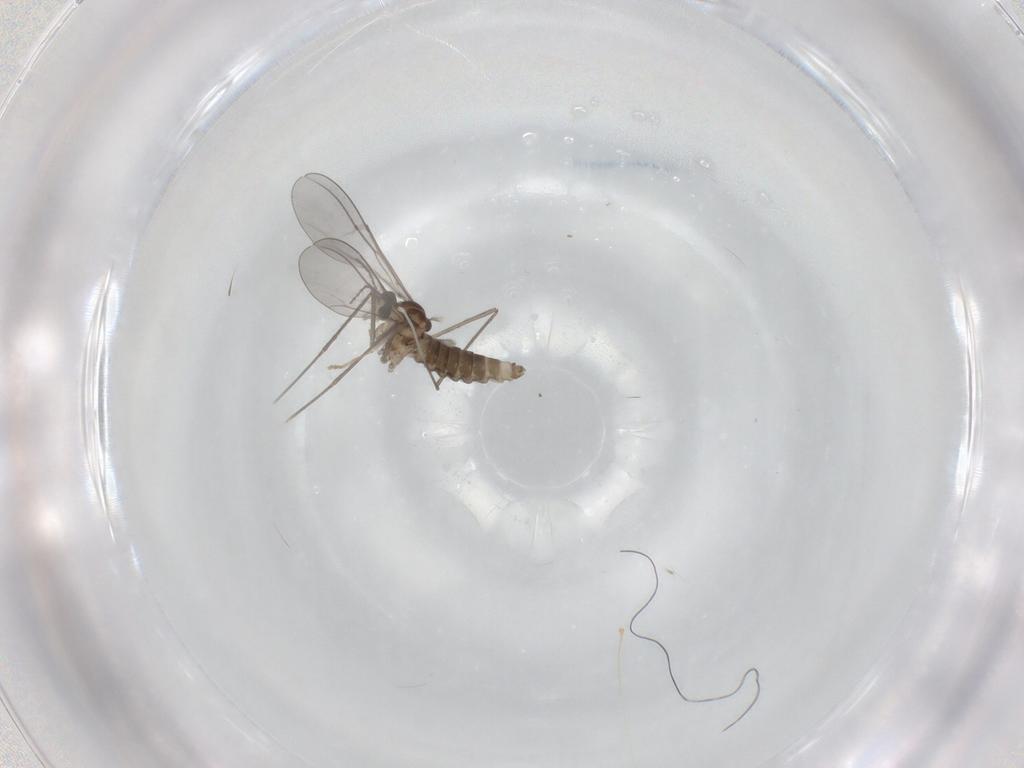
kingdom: Animalia
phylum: Arthropoda
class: Insecta
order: Diptera
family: Cecidomyiidae
